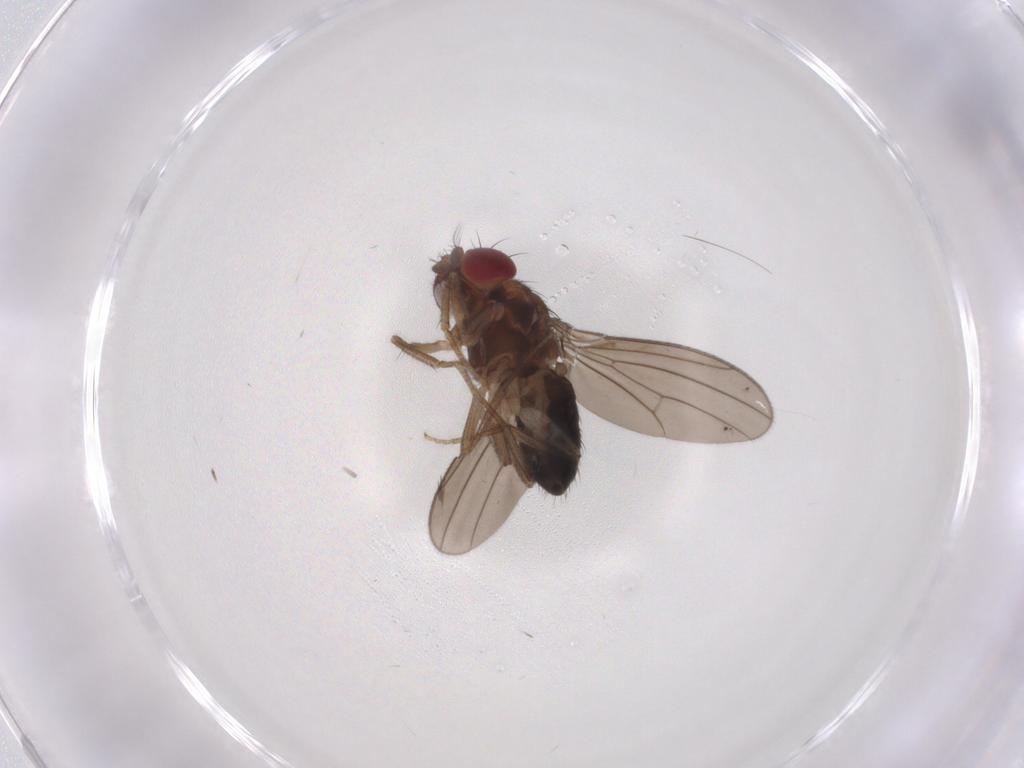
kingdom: Animalia
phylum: Arthropoda
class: Insecta
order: Diptera
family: Drosophilidae
